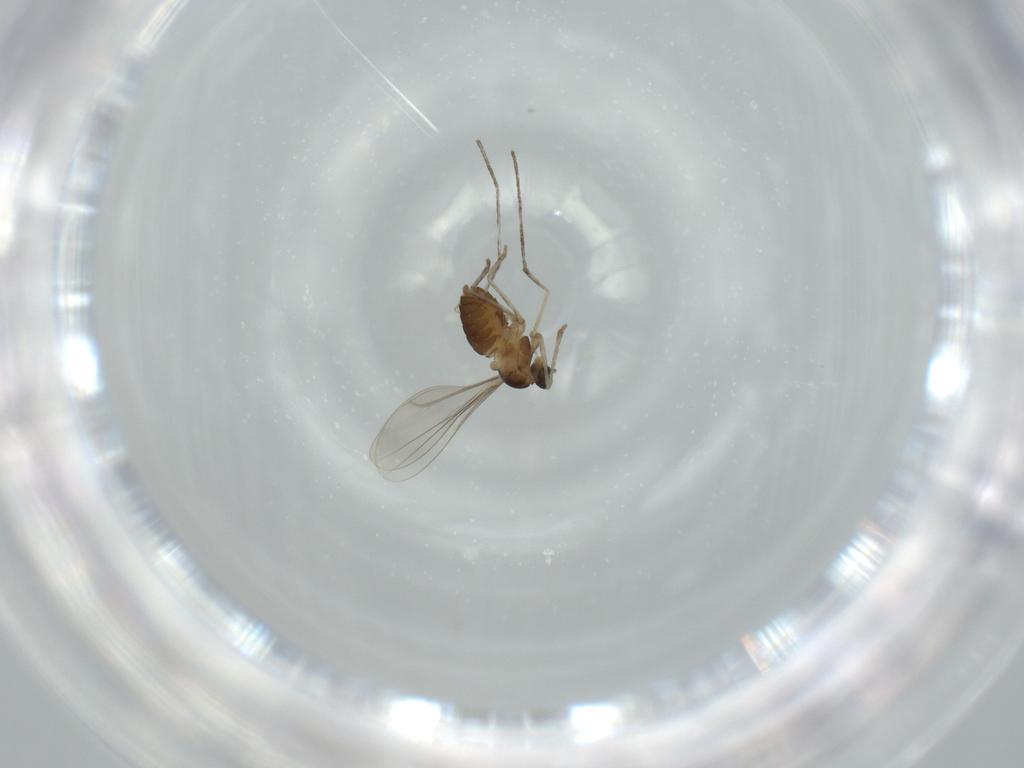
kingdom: Animalia
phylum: Arthropoda
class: Insecta
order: Diptera
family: Cecidomyiidae
